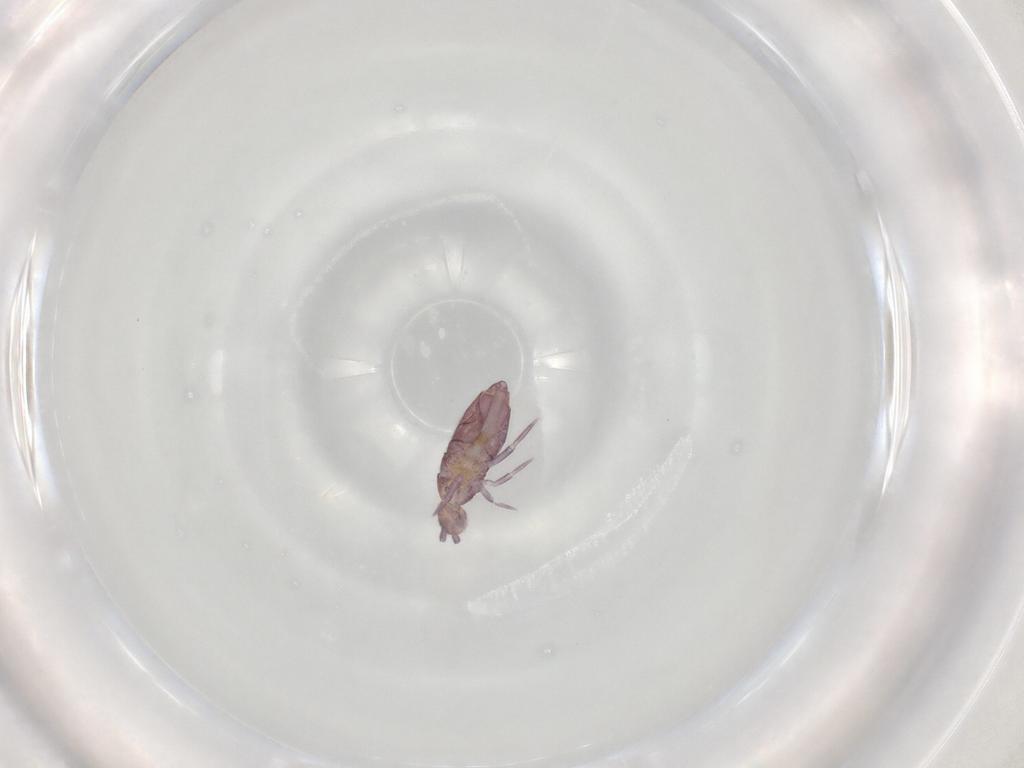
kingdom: Animalia
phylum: Arthropoda
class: Collembola
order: Entomobryomorpha
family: Entomobryidae
